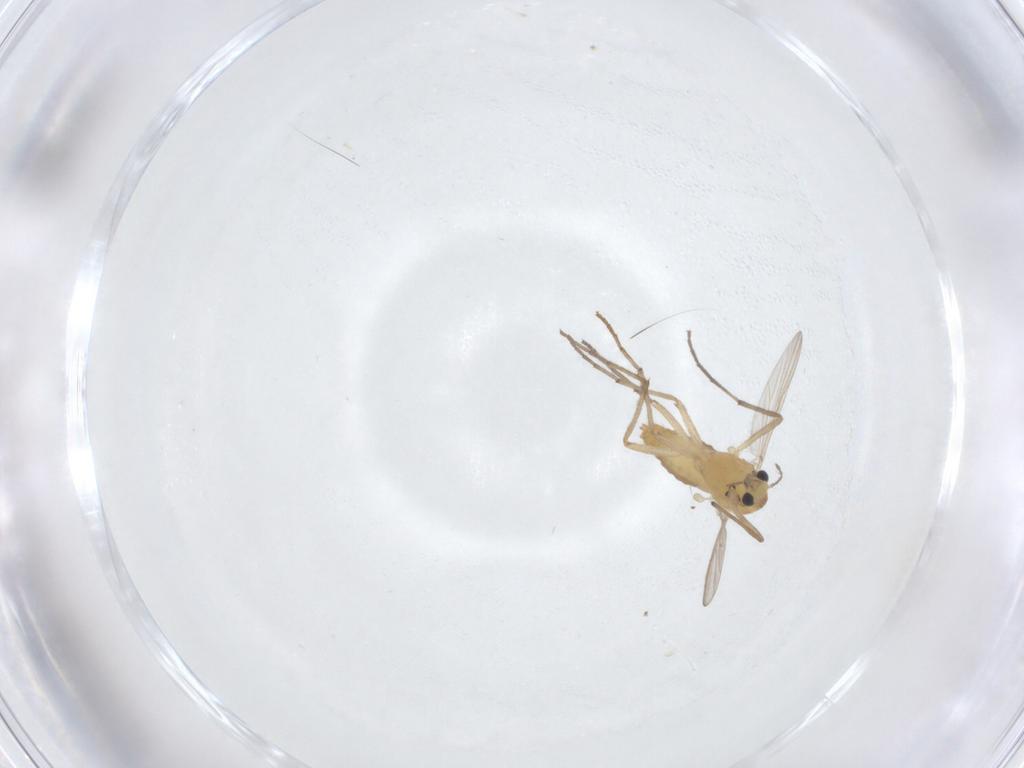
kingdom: Animalia
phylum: Arthropoda
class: Insecta
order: Diptera
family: Chironomidae
